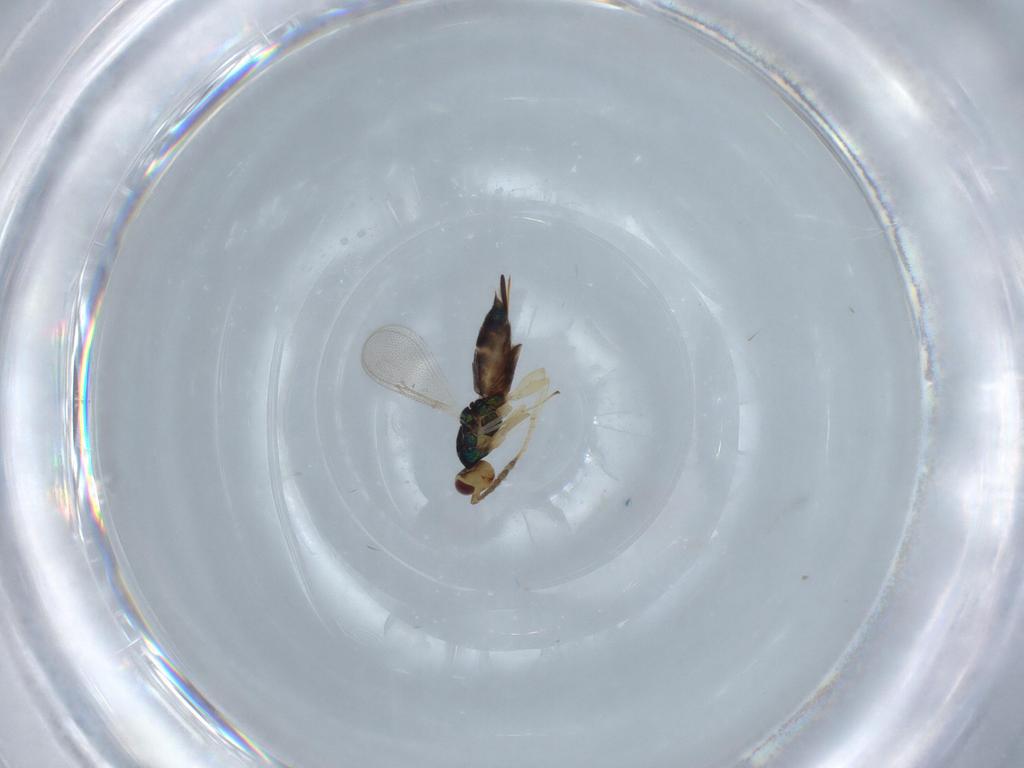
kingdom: Animalia
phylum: Arthropoda
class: Insecta
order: Hymenoptera
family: Eulophidae
